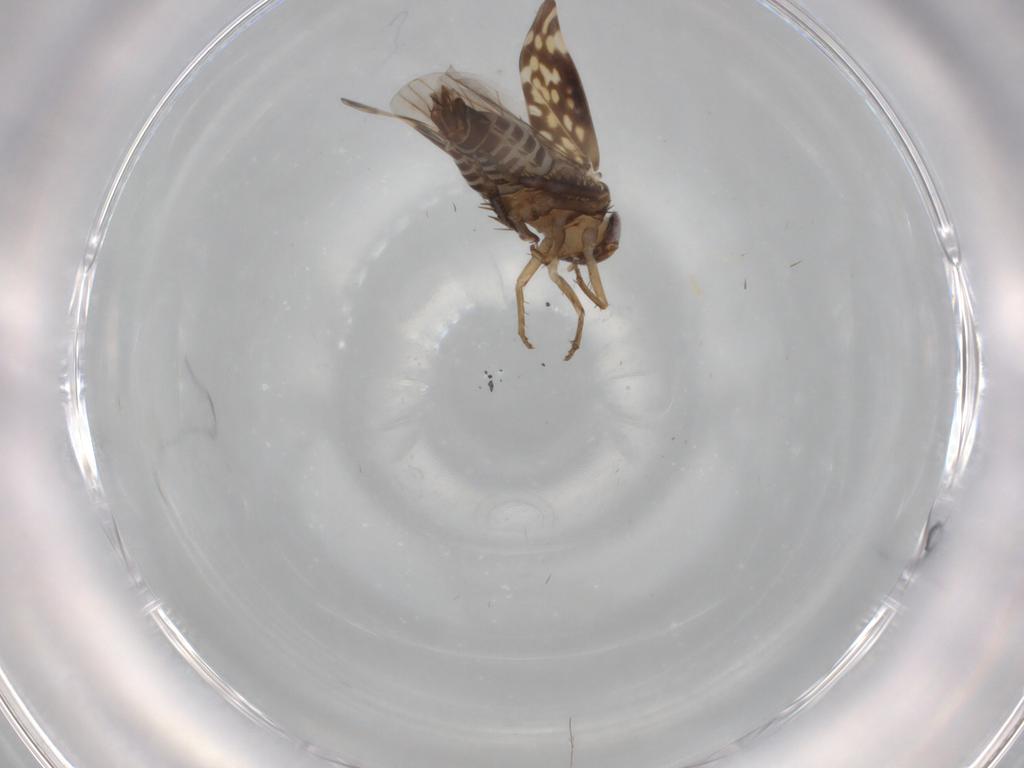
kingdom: Animalia
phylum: Arthropoda
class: Insecta
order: Hemiptera
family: Cicadellidae
